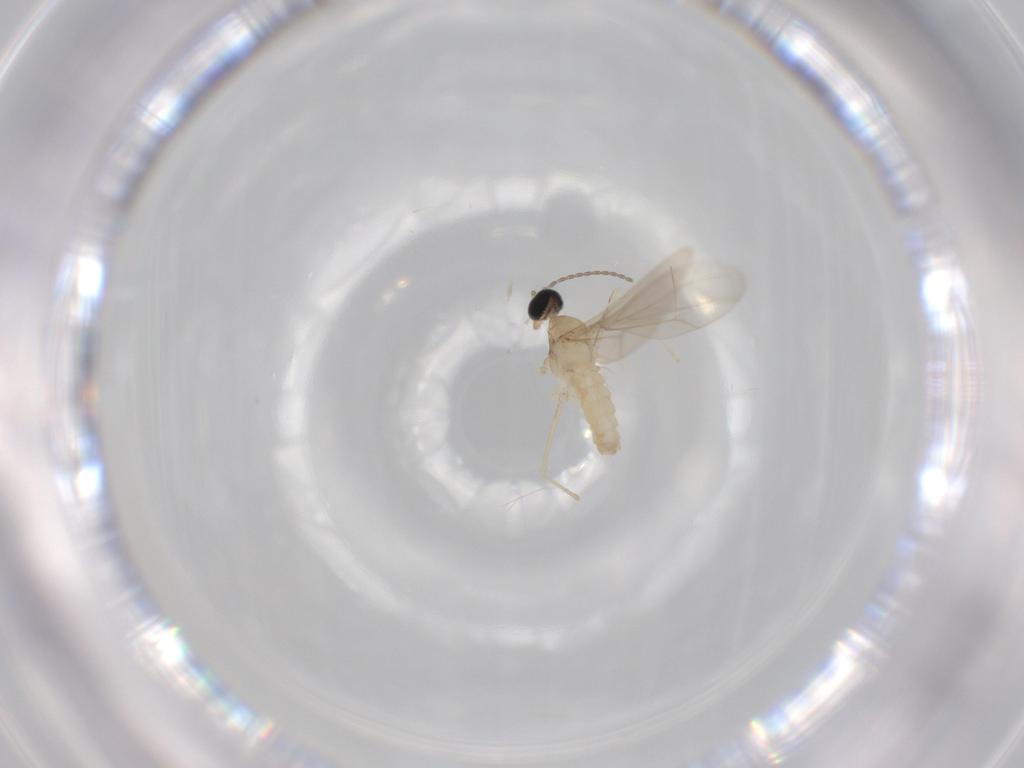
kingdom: Animalia
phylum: Arthropoda
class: Insecta
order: Diptera
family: Cecidomyiidae
